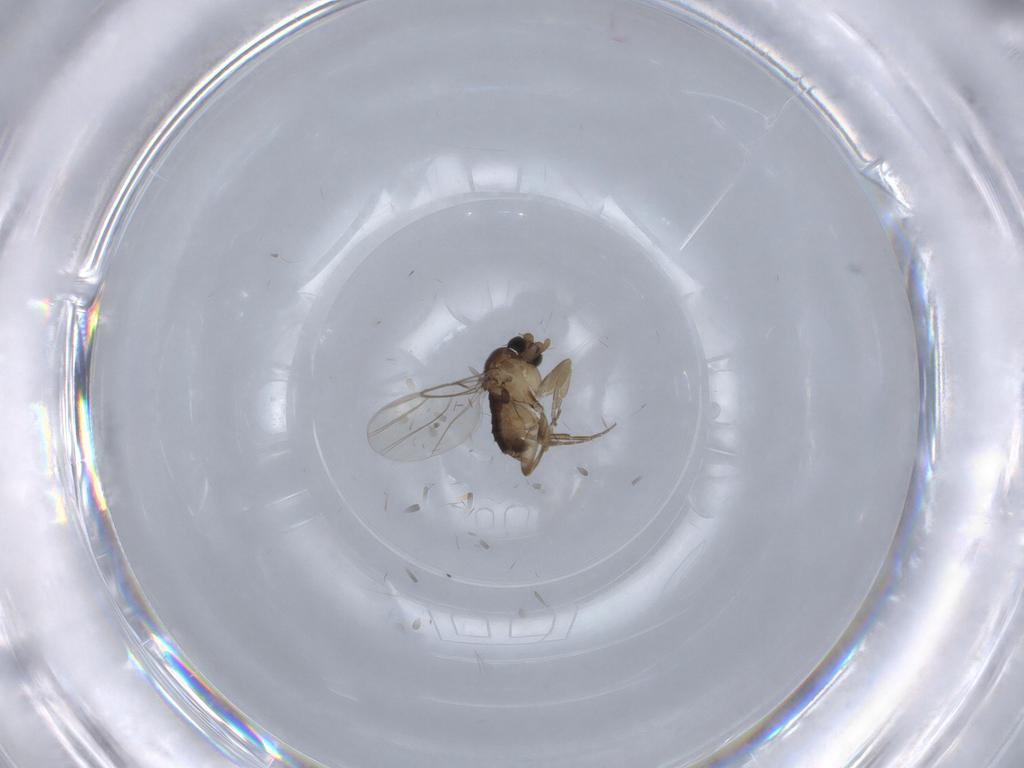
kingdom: Animalia
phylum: Arthropoda
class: Insecta
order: Diptera
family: Phoridae
